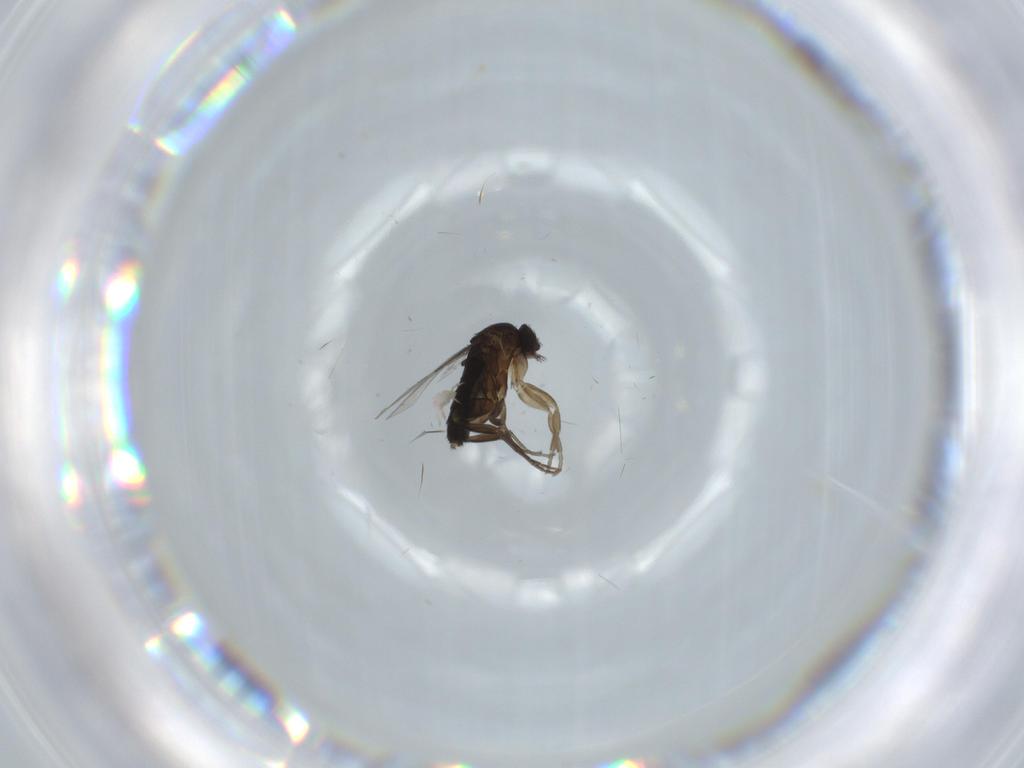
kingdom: Animalia
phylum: Arthropoda
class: Insecta
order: Diptera
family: Phoridae
